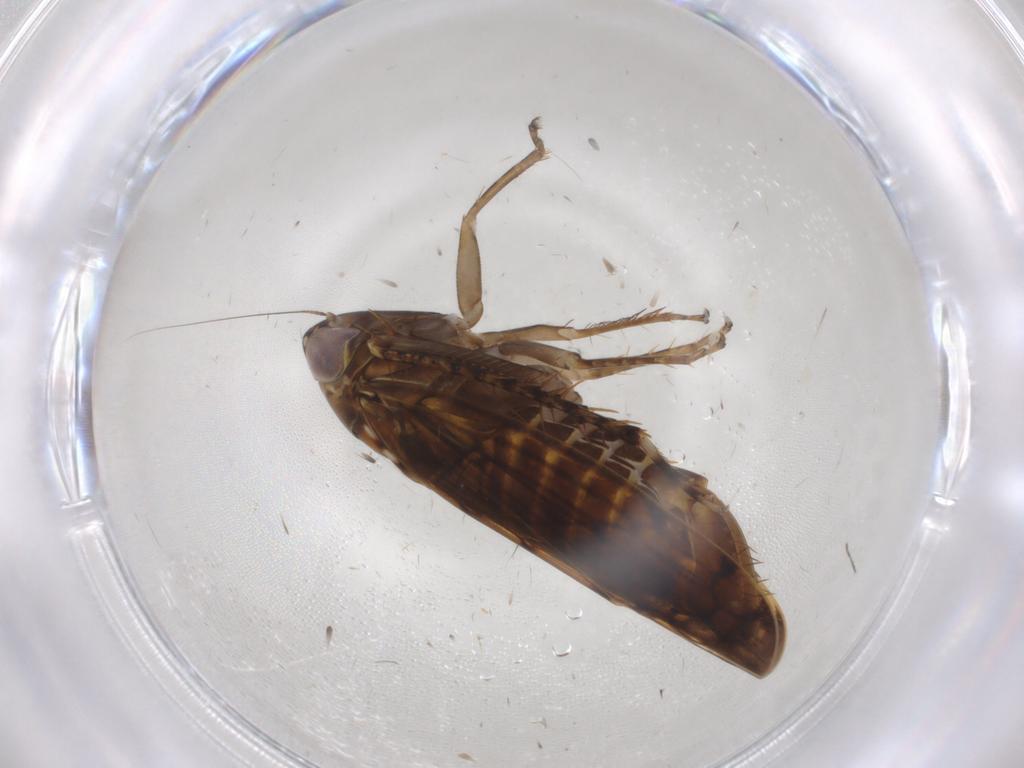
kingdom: Animalia
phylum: Arthropoda
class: Insecta
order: Hemiptera
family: Cicadellidae
